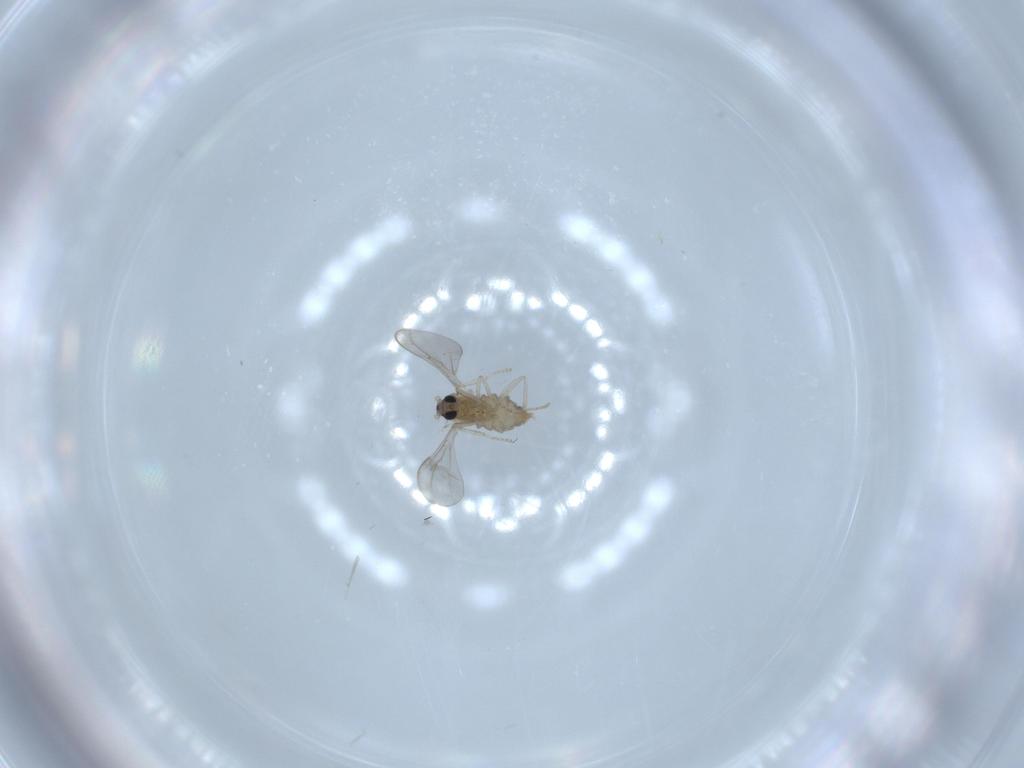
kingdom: Animalia
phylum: Arthropoda
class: Insecta
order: Diptera
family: Cecidomyiidae
